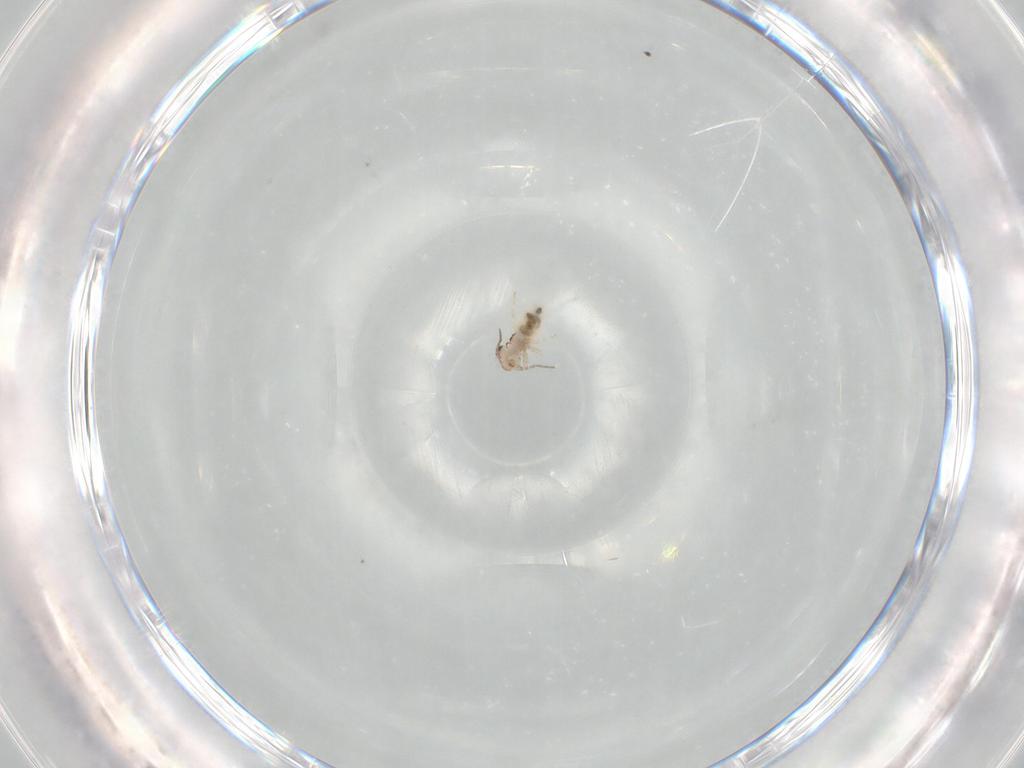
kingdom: Animalia
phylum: Arthropoda
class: Insecta
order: Psocodea
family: Lepidopsocidae
